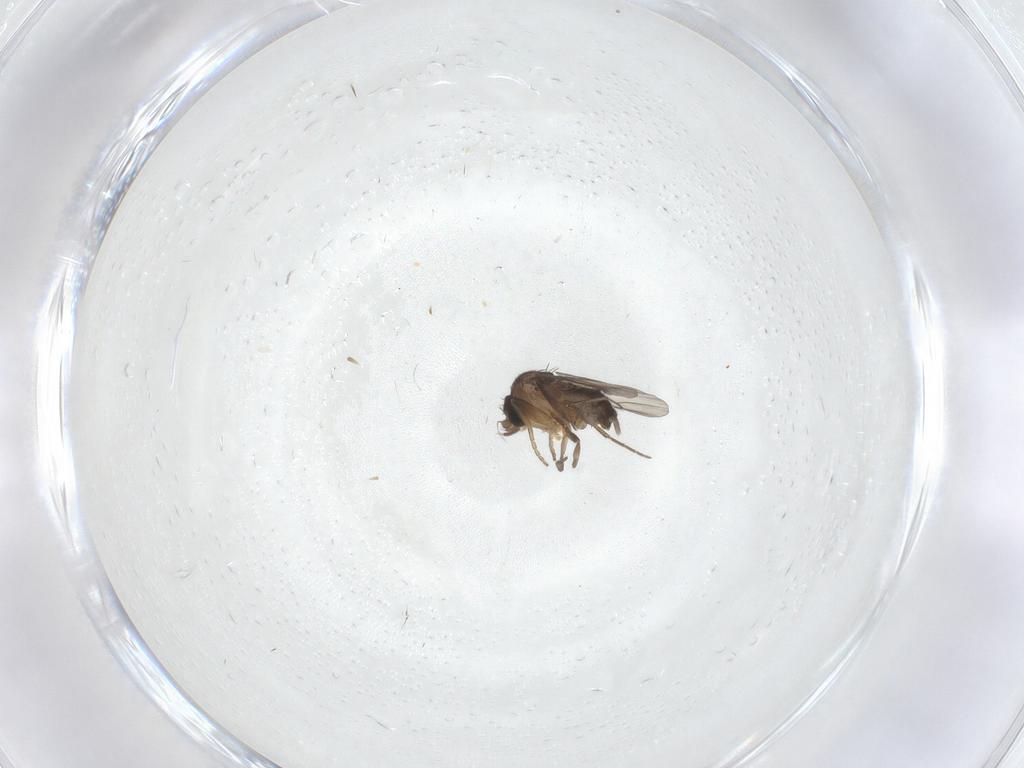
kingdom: Animalia
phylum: Arthropoda
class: Insecta
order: Diptera
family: Phoridae
